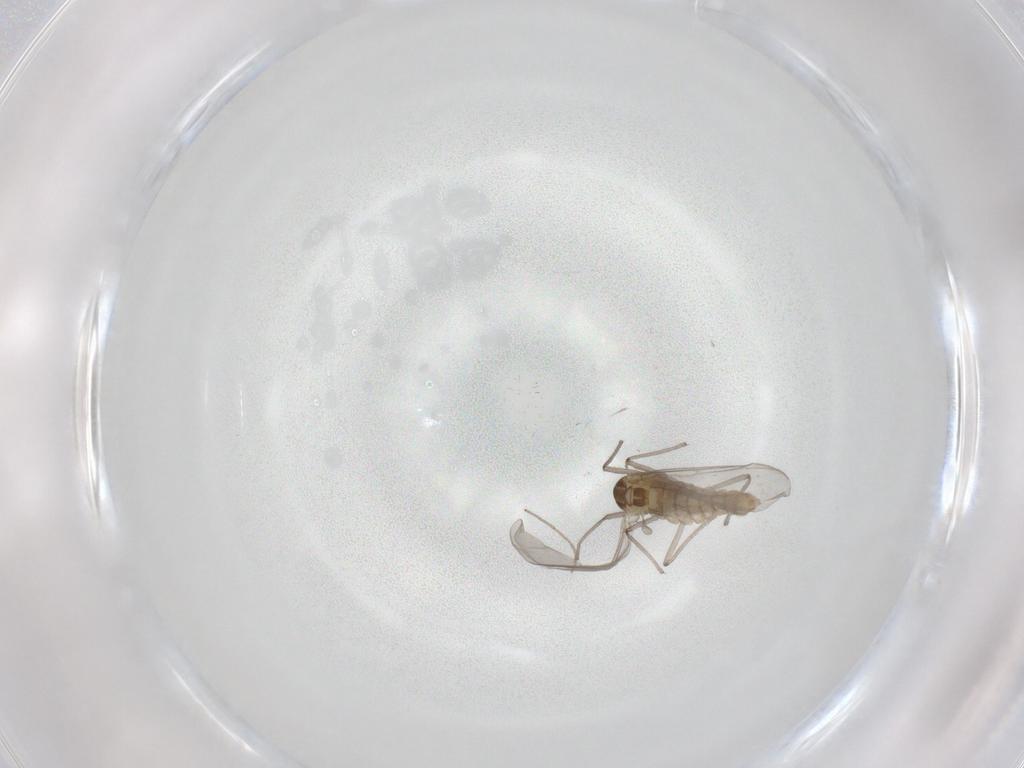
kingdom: Animalia
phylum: Arthropoda
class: Insecta
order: Diptera
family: Chironomidae
